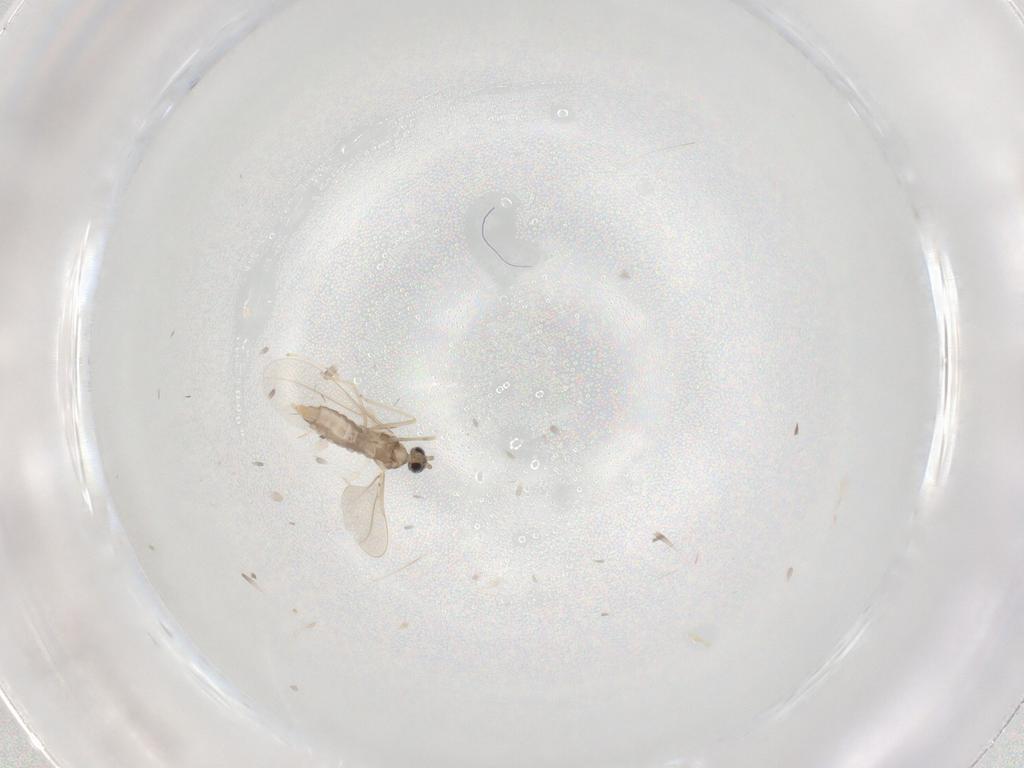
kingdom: Animalia
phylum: Arthropoda
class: Insecta
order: Diptera
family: Cecidomyiidae
